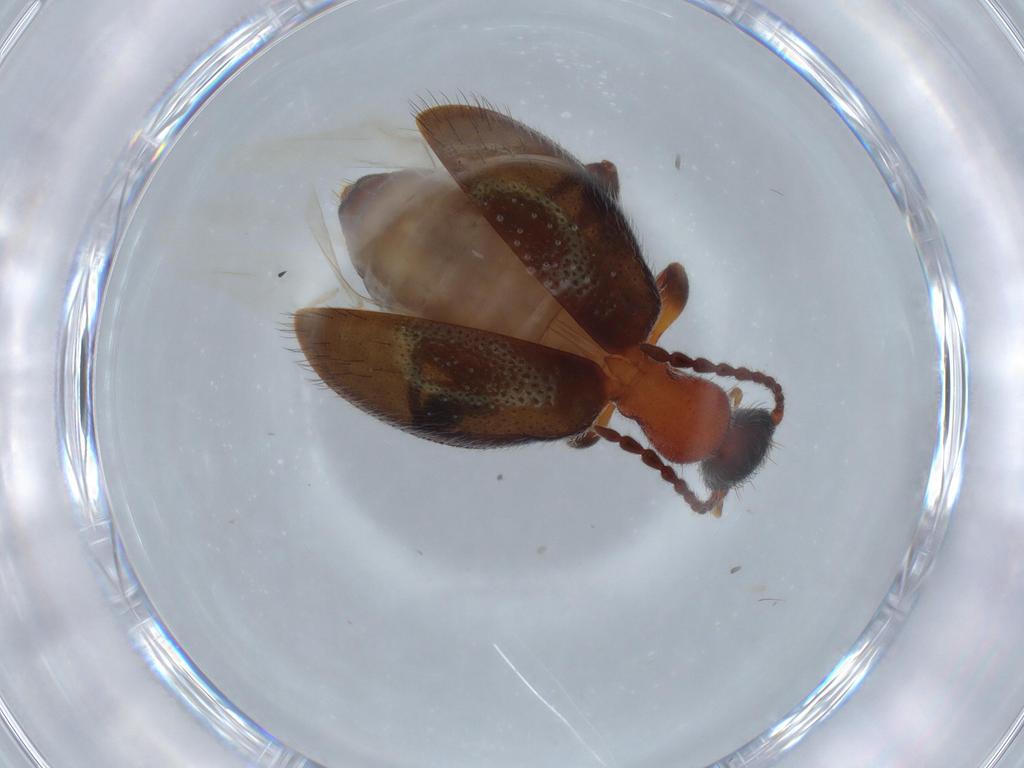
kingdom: Animalia
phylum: Arthropoda
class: Insecta
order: Coleoptera
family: Anthicidae
